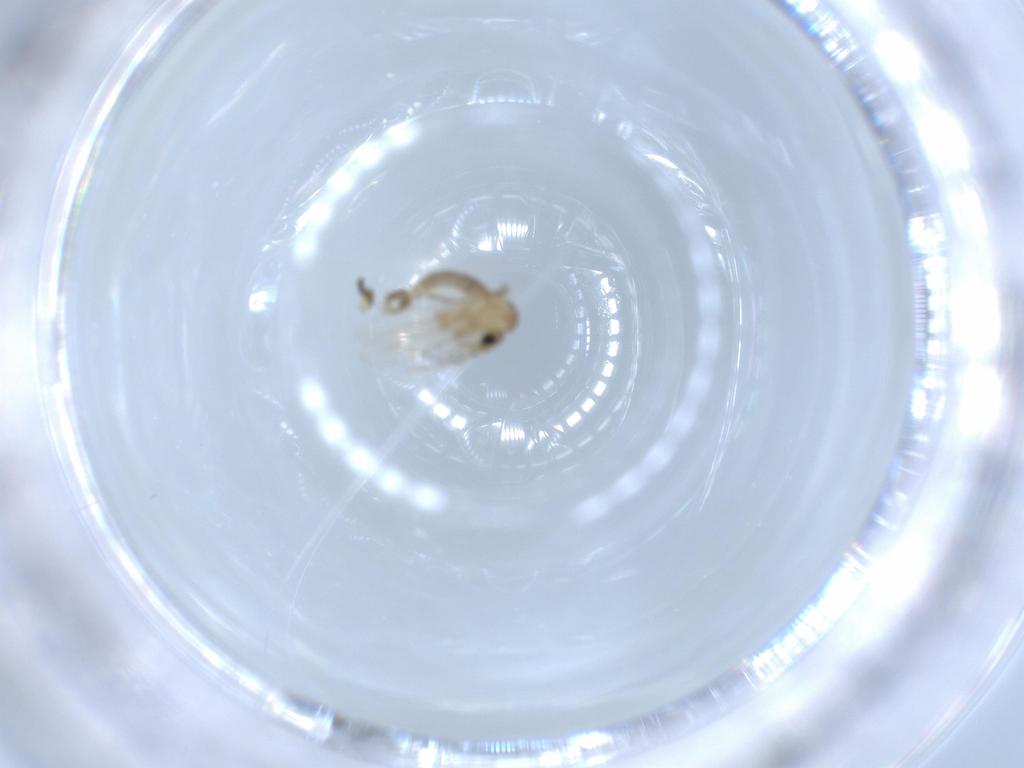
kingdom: Animalia
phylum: Arthropoda
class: Insecta
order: Diptera
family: Psychodidae
